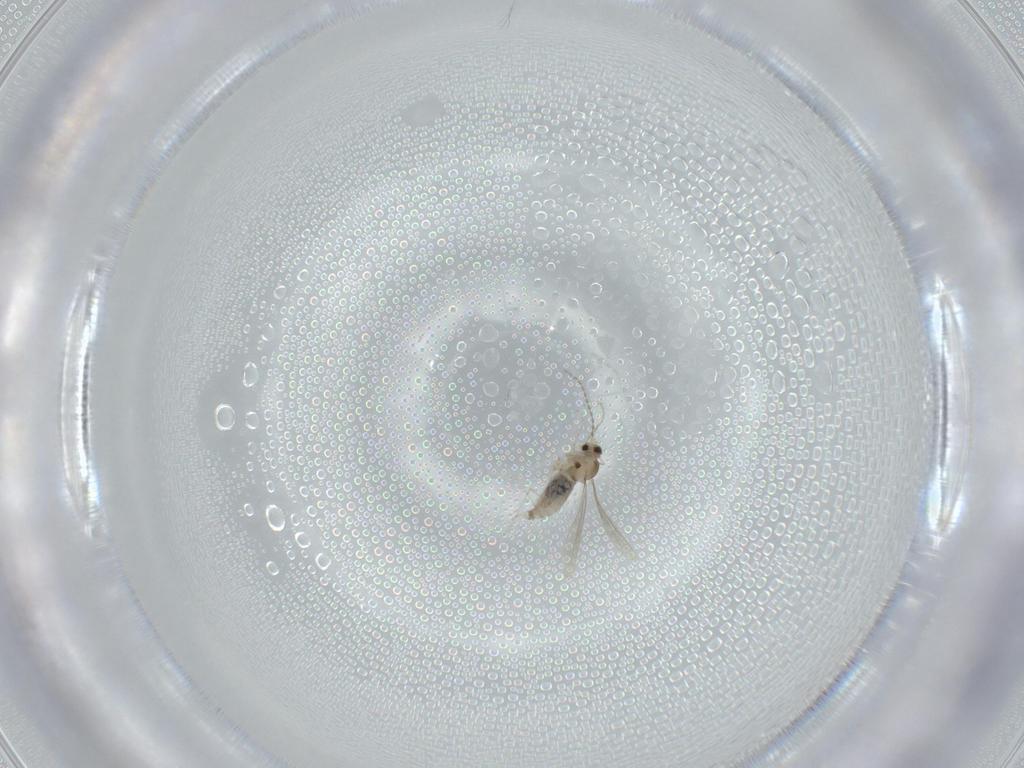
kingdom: Animalia
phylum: Arthropoda
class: Insecta
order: Diptera
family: Cecidomyiidae
